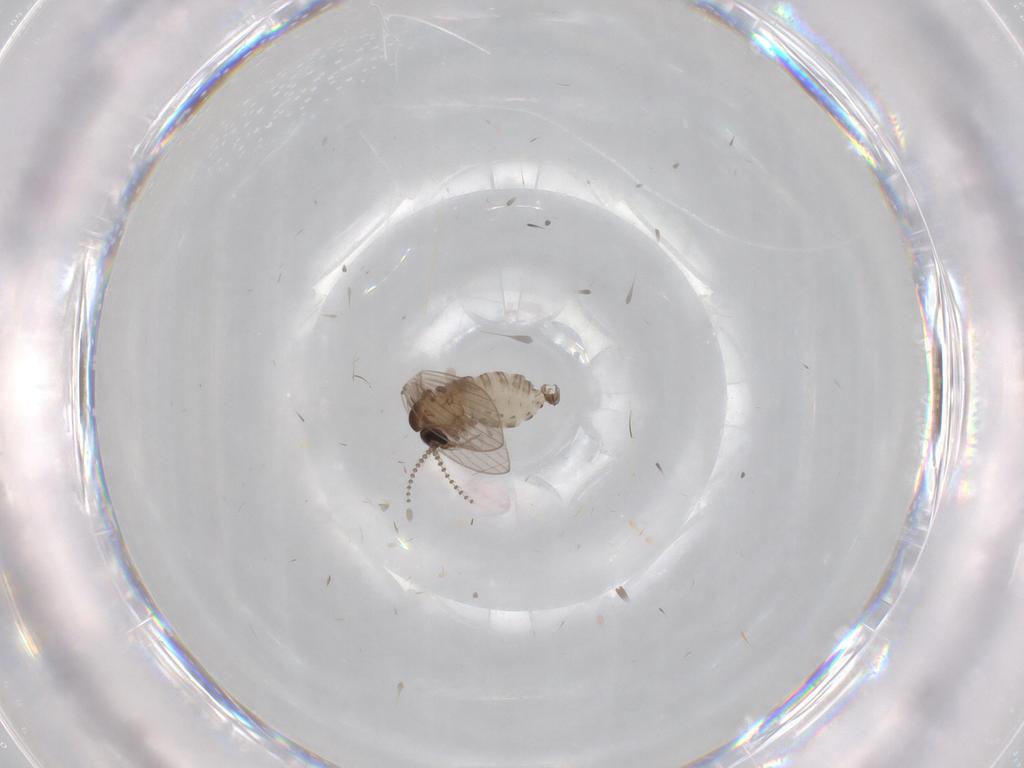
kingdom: Animalia
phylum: Arthropoda
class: Insecta
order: Diptera
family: Psychodidae
